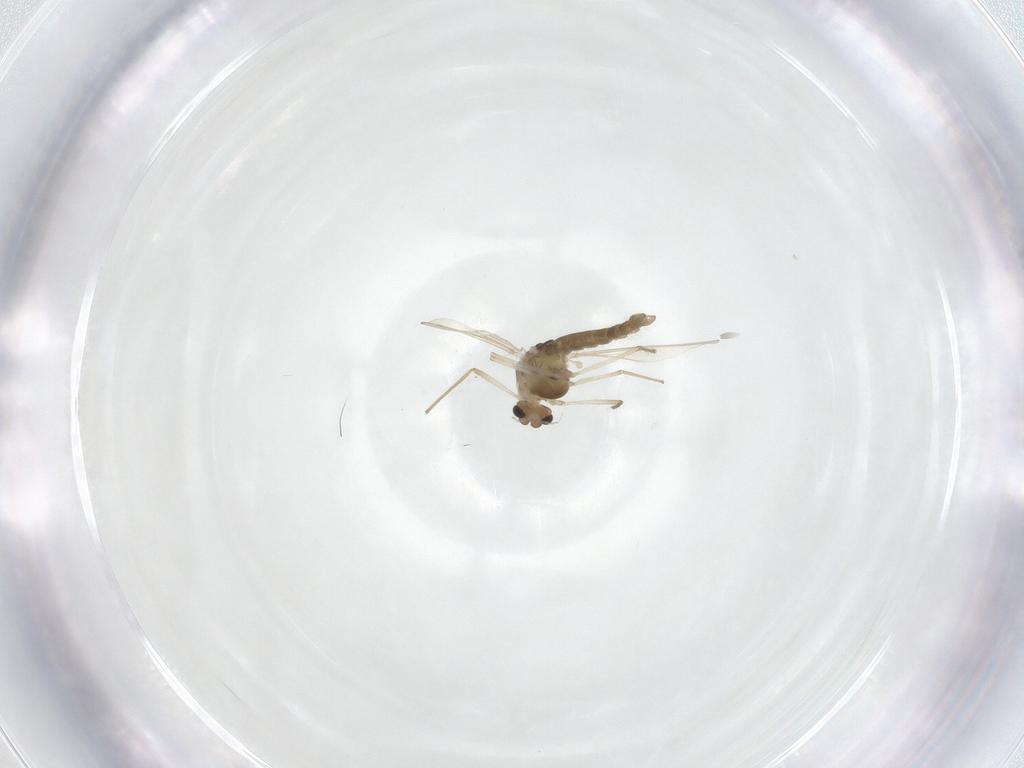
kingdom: Animalia
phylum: Arthropoda
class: Insecta
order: Diptera
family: Chironomidae
